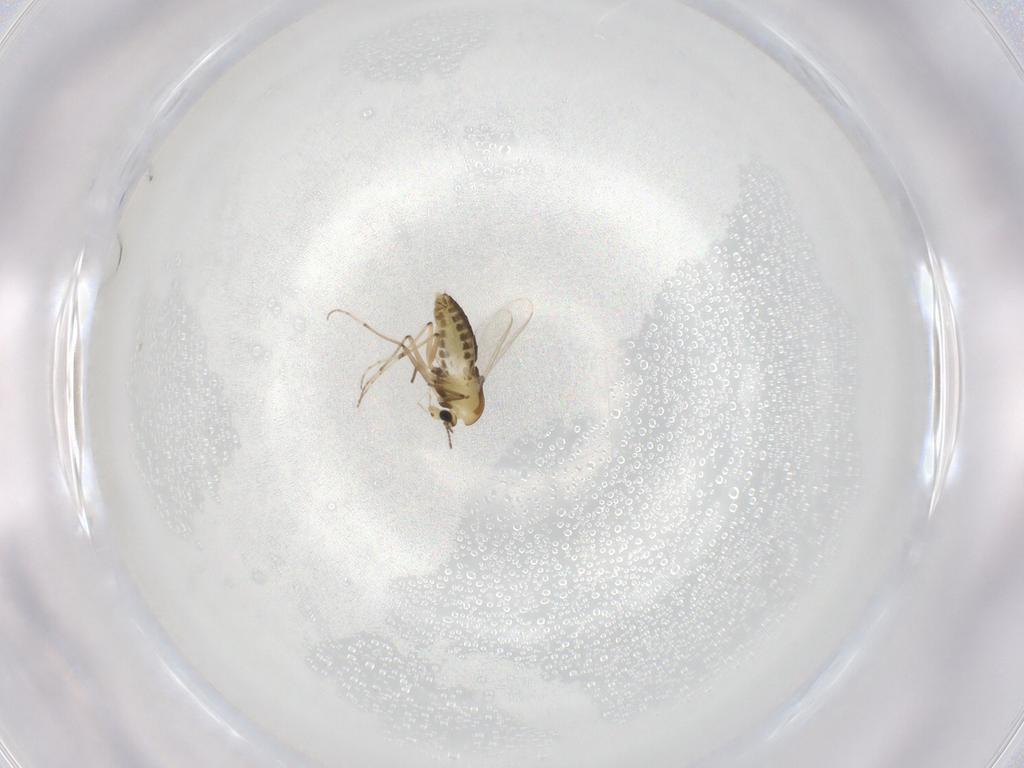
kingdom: Animalia
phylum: Arthropoda
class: Insecta
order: Diptera
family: Chironomidae
